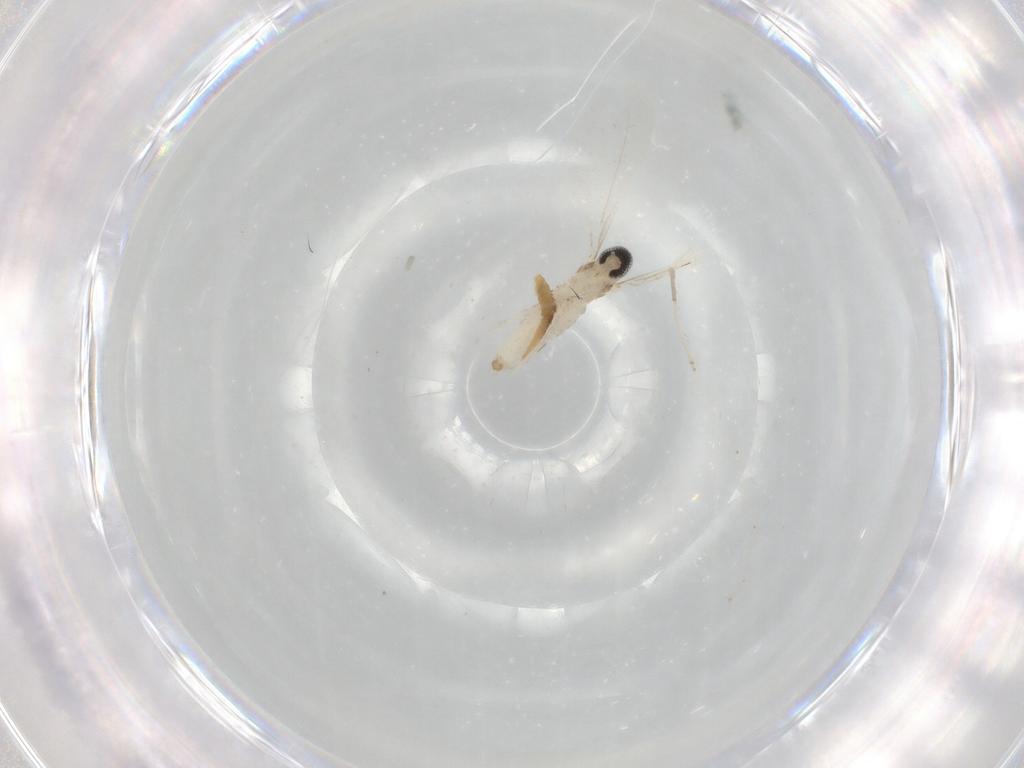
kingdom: Animalia
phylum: Arthropoda
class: Insecta
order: Diptera
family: Cecidomyiidae
